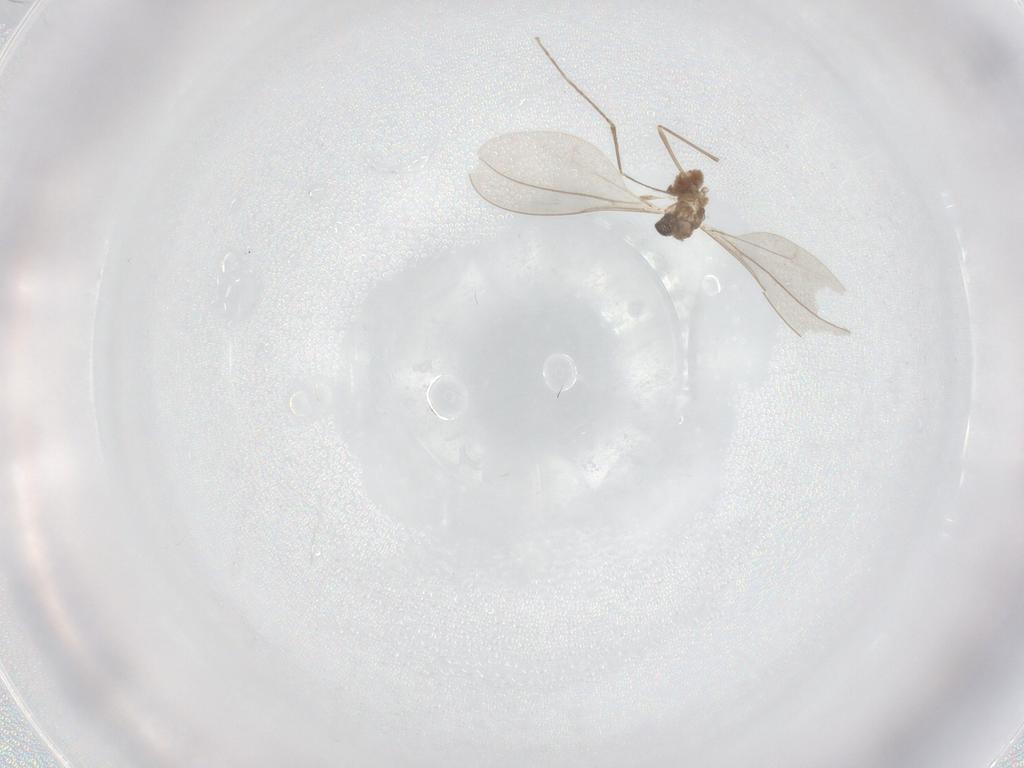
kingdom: Animalia
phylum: Arthropoda
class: Insecta
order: Diptera
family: Cecidomyiidae
